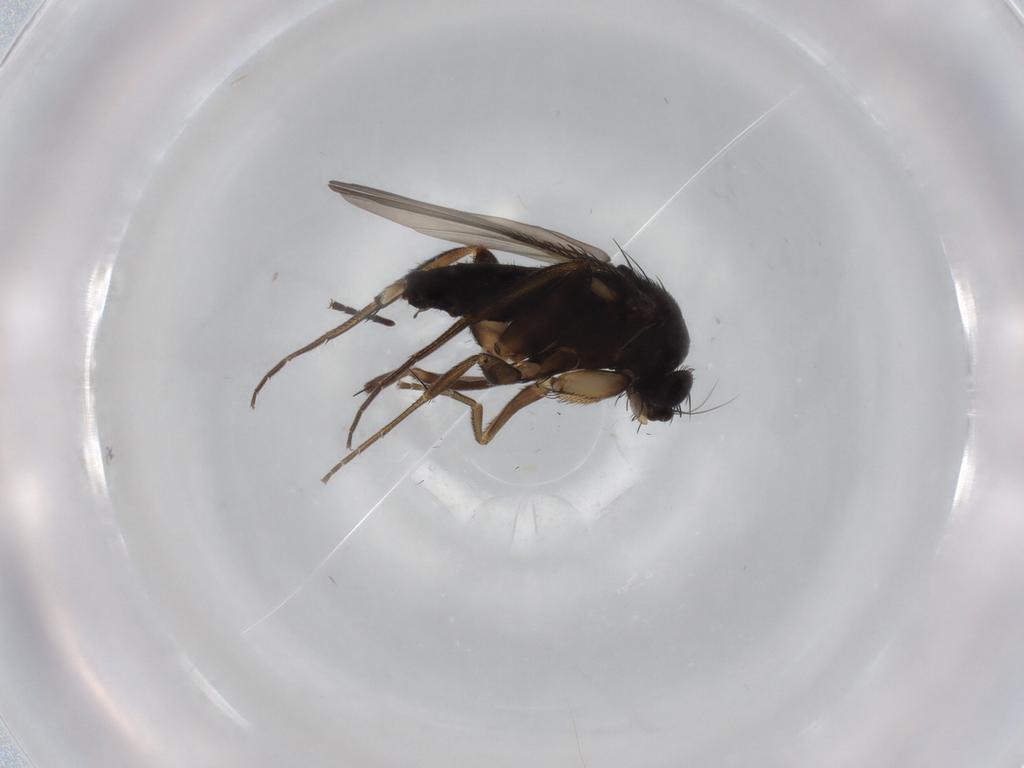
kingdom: Animalia
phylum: Arthropoda
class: Insecta
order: Diptera
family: Phoridae
